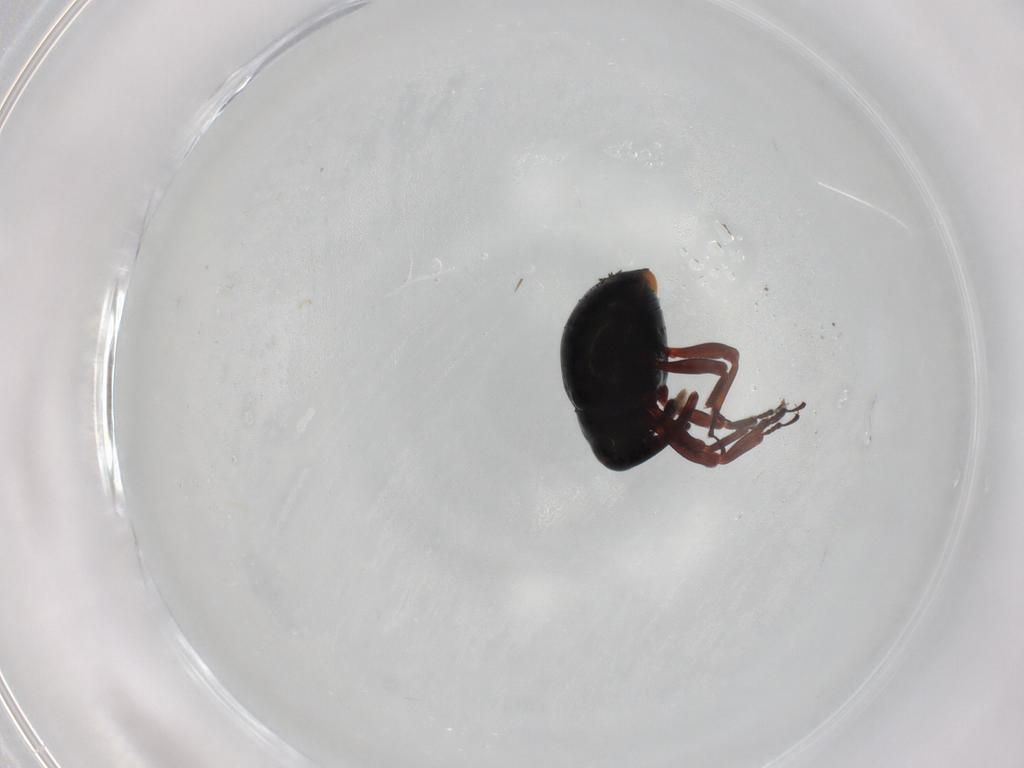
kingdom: Animalia
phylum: Arthropoda
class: Insecta
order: Coleoptera
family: Curculionidae
